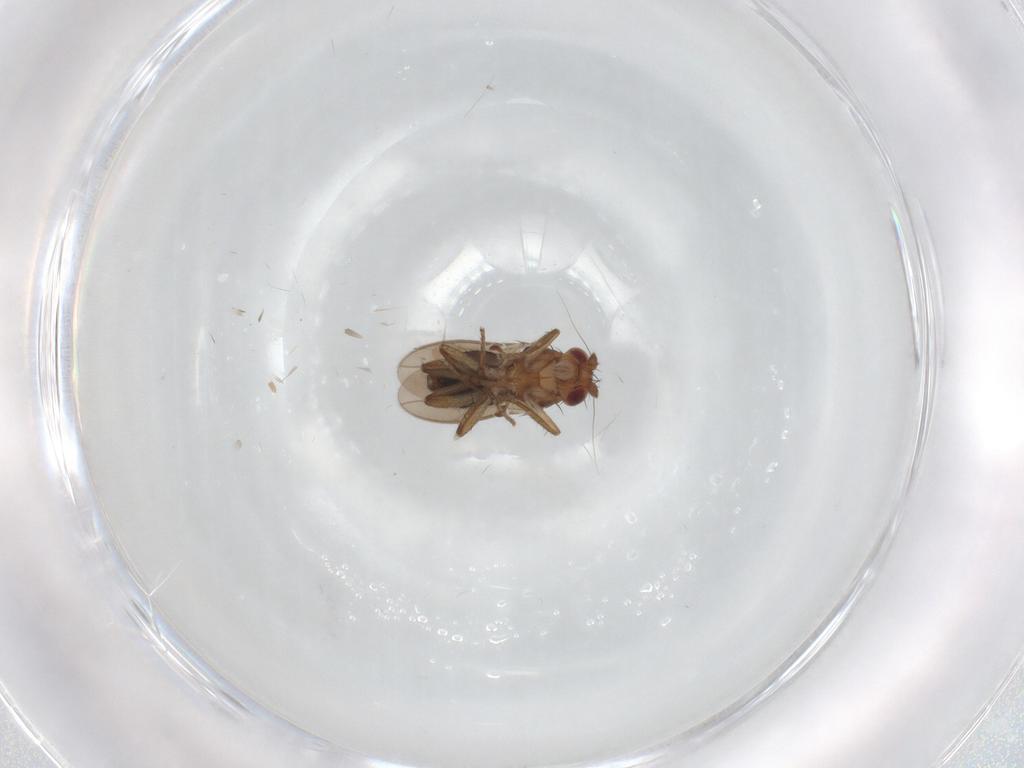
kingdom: Animalia
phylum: Arthropoda
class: Insecta
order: Diptera
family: Sphaeroceridae
